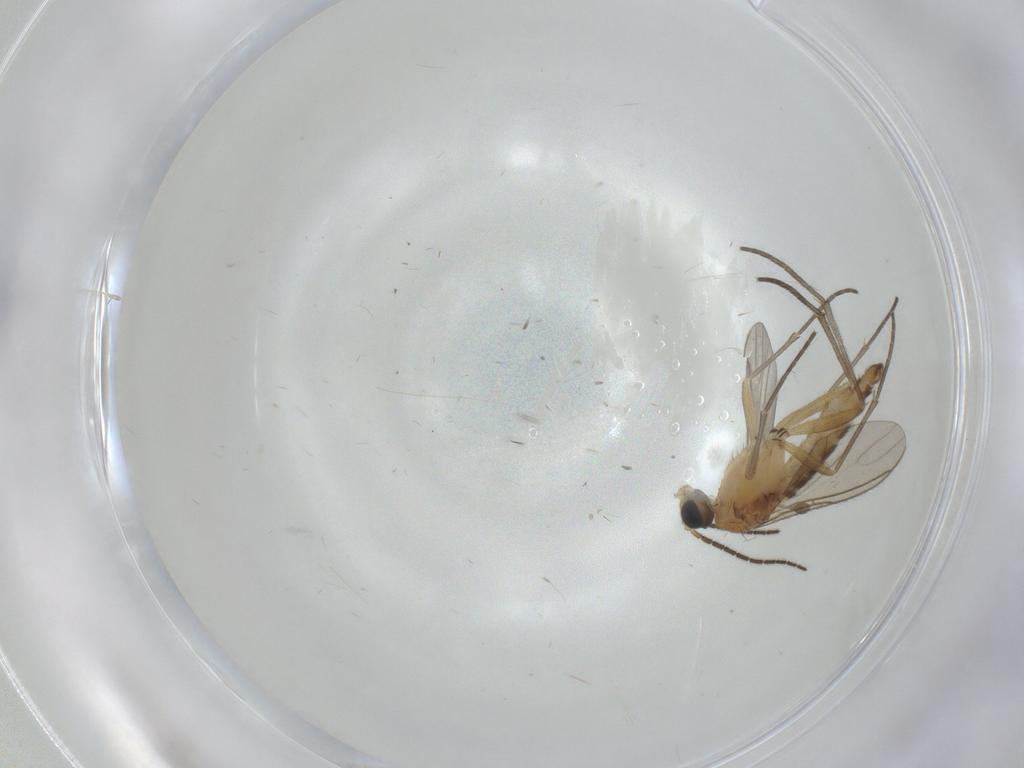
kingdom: Animalia
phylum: Arthropoda
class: Insecta
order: Diptera
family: Sciaridae
